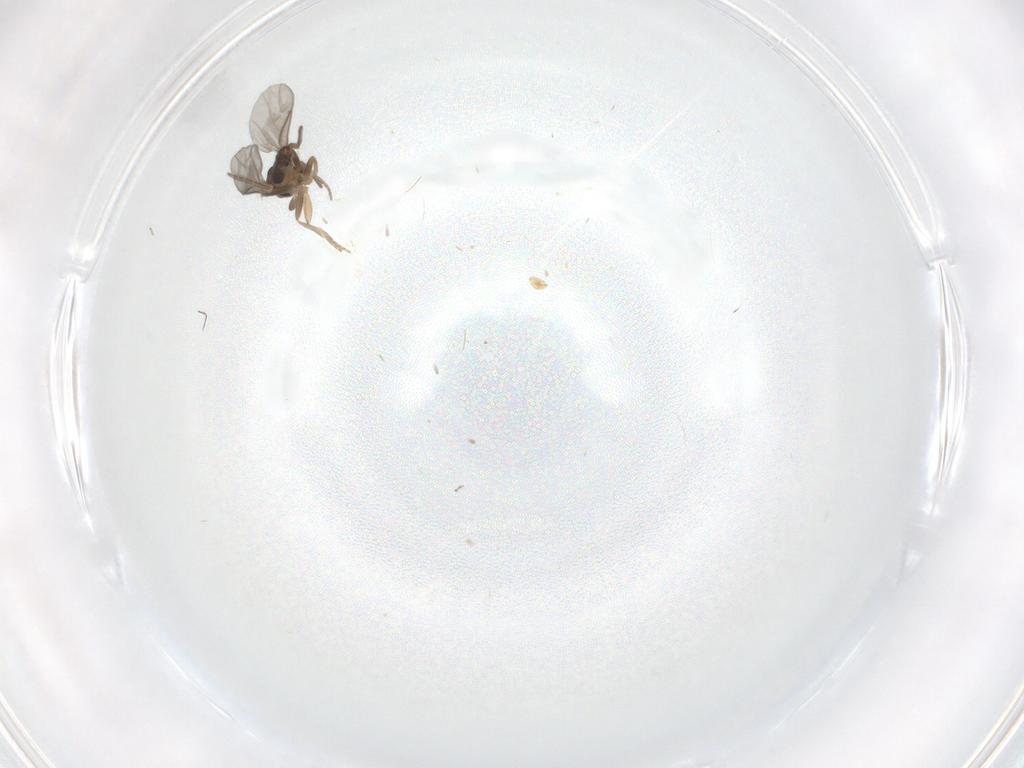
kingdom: Animalia
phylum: Arthropoda
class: Insecta
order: Diptera
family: Chironomidae
